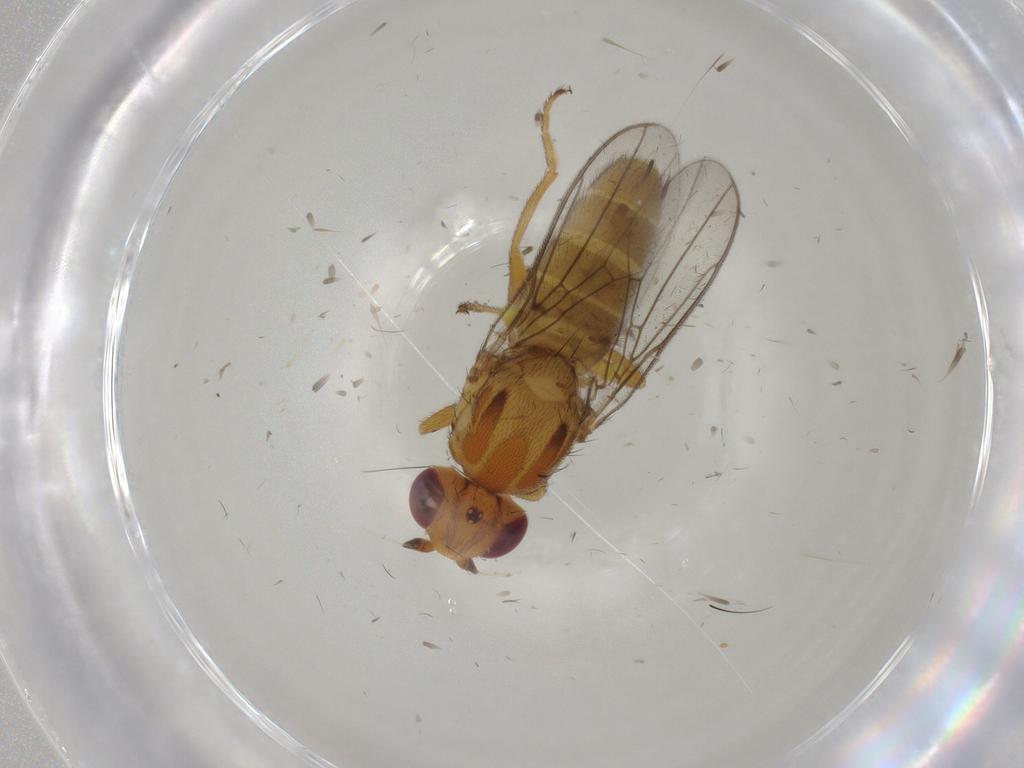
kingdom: Animalia
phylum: Arthropoda
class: Insecta
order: Diptera
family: Chloropidae
